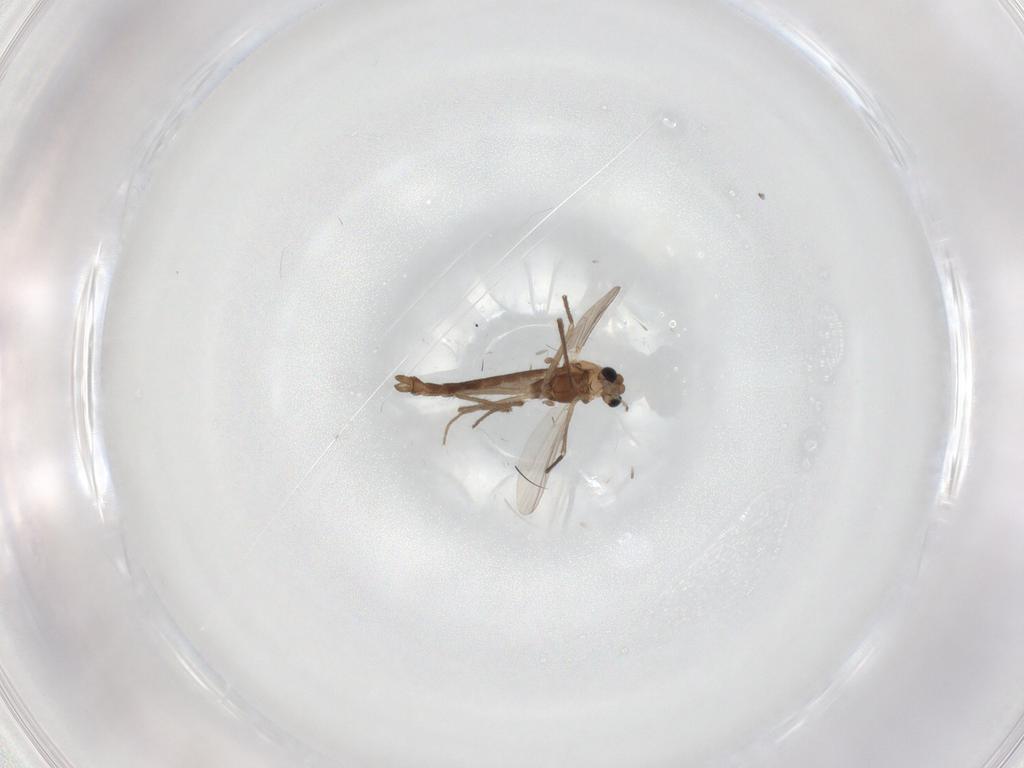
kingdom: Animalia
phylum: Arthropoda
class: Insecta
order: Diptera
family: Chironomidae
